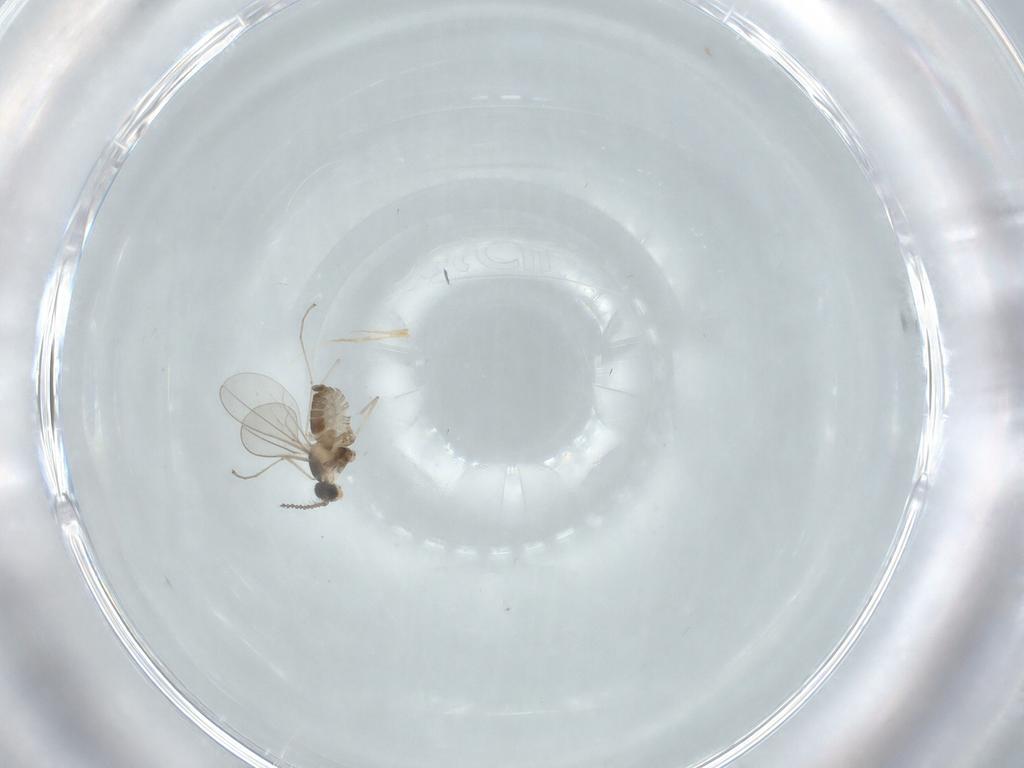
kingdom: Animalia
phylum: Arthropoda
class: Insecta
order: Diptera
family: Cecidomyiidae
